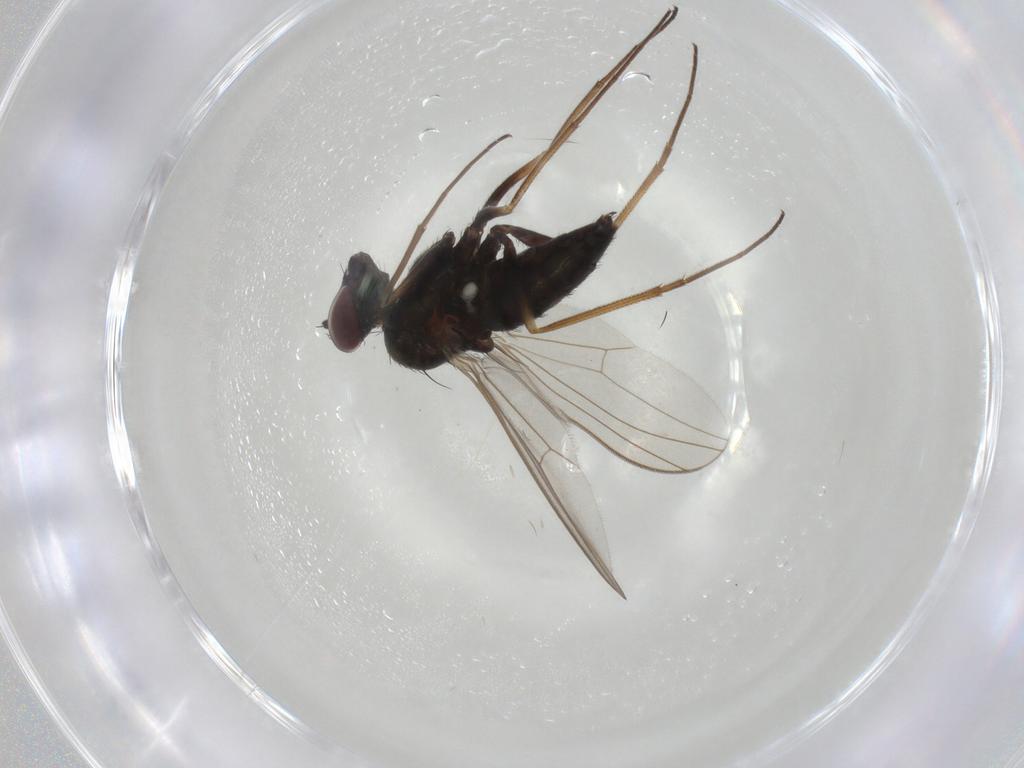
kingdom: Animalia
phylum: Arthropoda
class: Insecta
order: Diptera
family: Dolichopodidae
